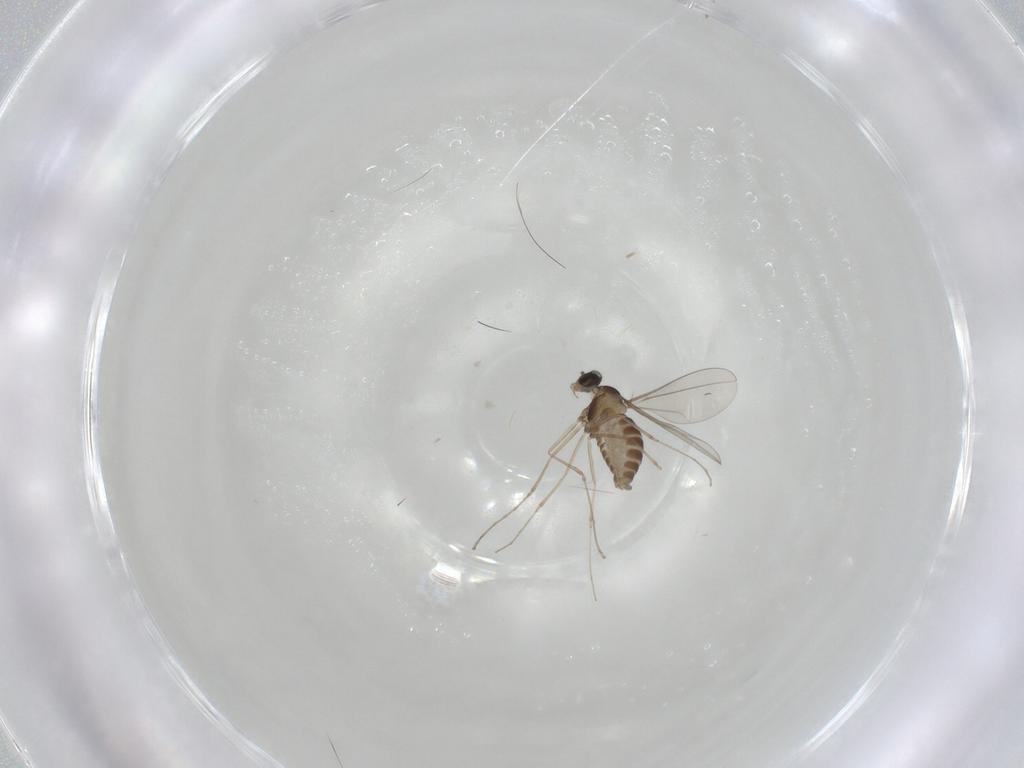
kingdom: Animalia
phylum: Arthropoda
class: Insecta
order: Diptera
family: Cecidomyiidae
